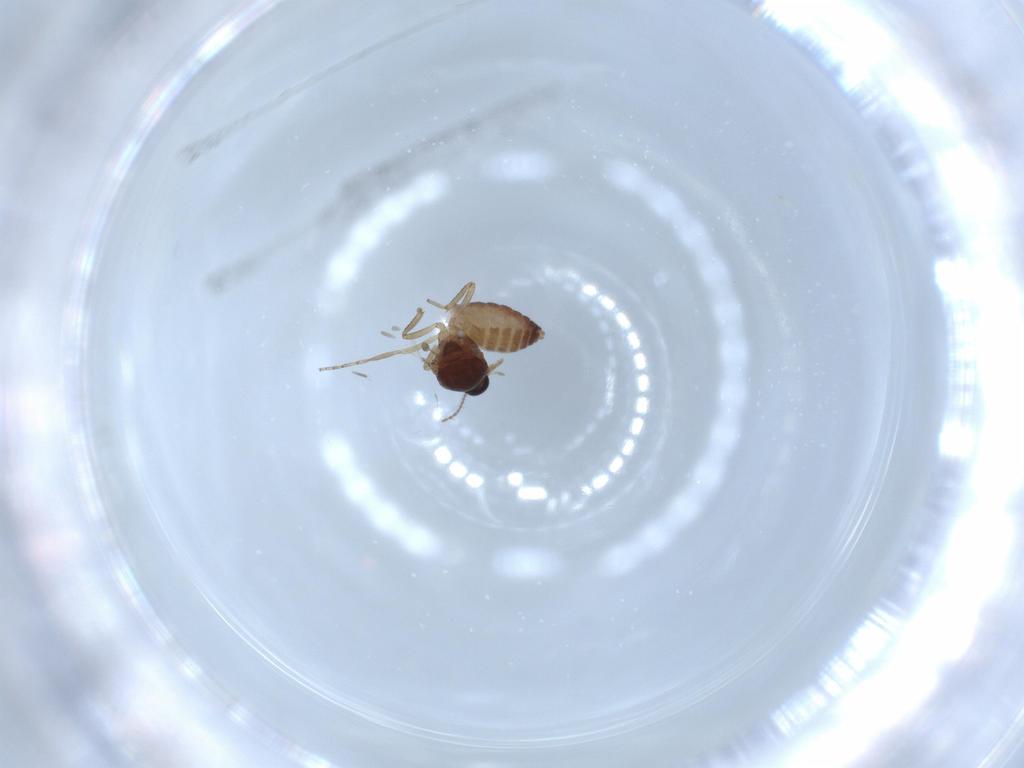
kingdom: Animalia
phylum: Arthropoda
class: Insecta
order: Diptera
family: Ceratopogonidae
